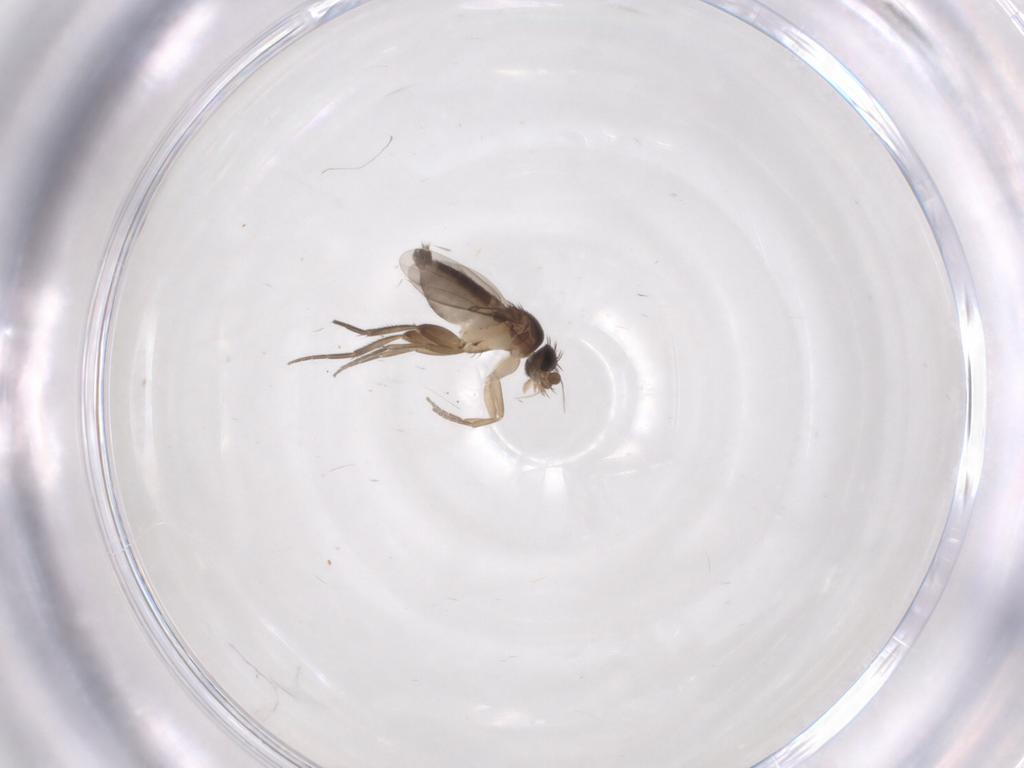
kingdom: Animalia
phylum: Arthropoda
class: Insecta
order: Diptera
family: Phoridae
